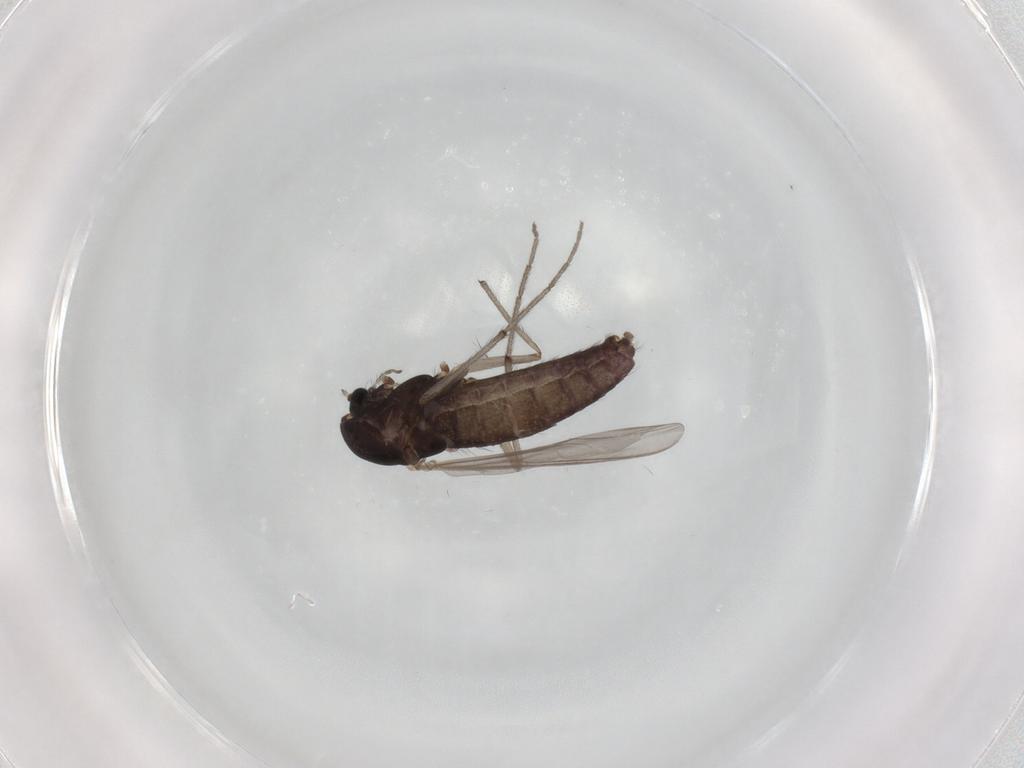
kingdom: Animalia
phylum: Arthropoda
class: Insecta
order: Diptera
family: Chironomidae
